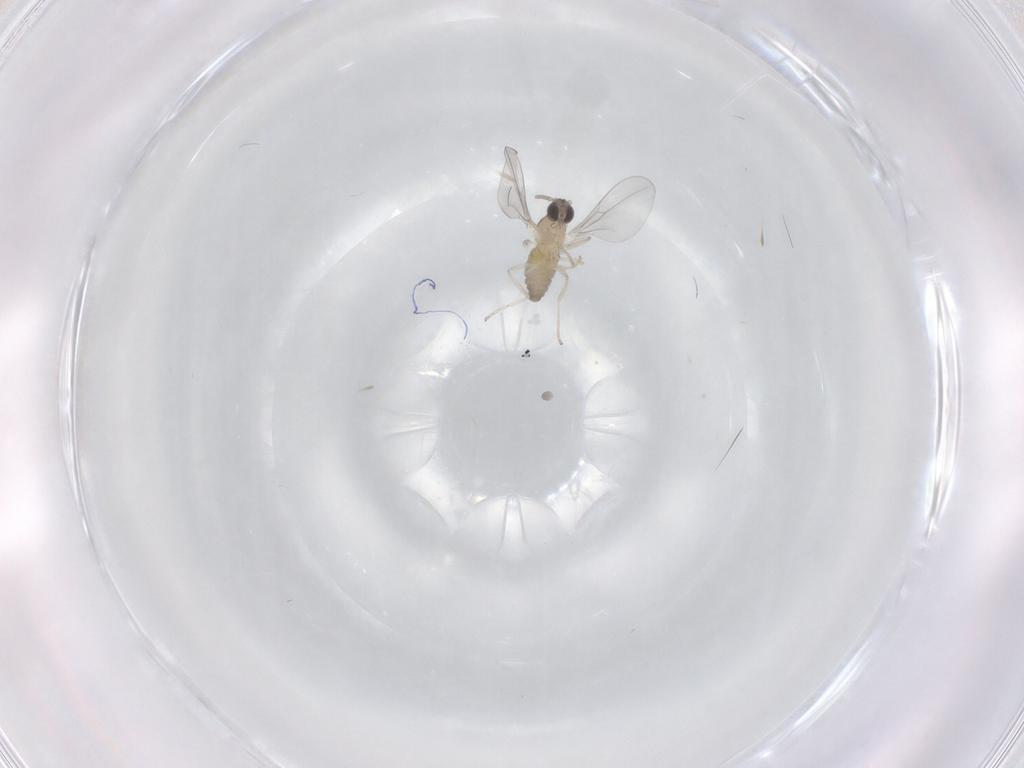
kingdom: Animalia
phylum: Arthropoda
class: Insecta
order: Diptera
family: Cecidomyiidae
